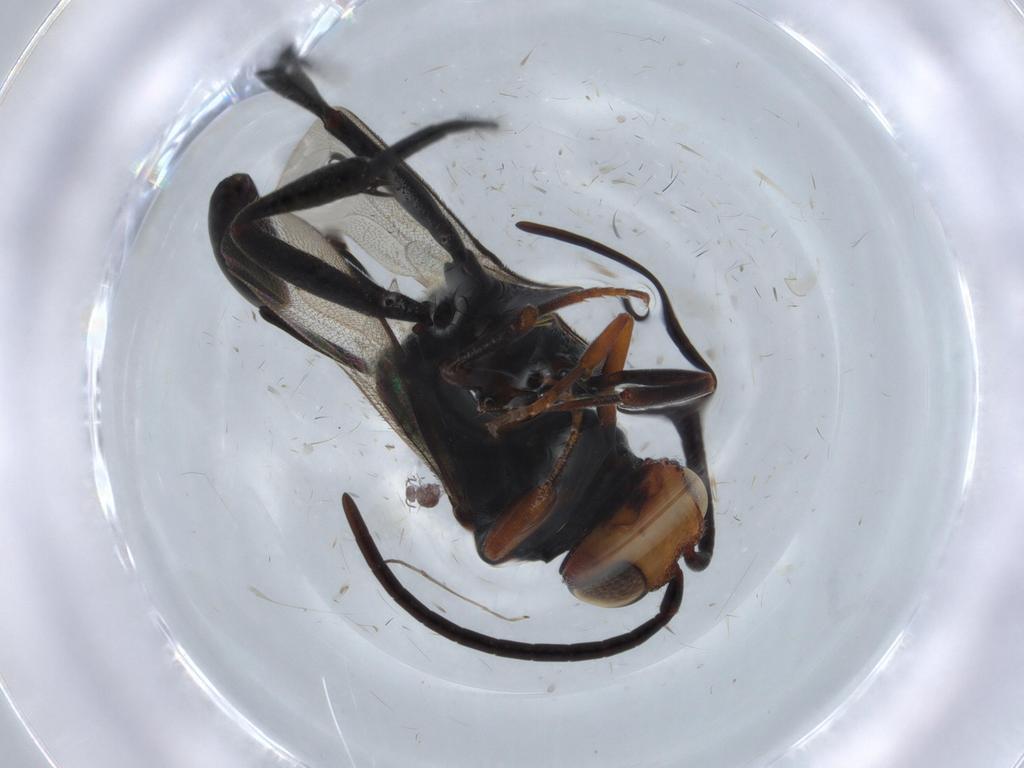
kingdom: Animalia
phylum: Arthropoda
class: Insecta
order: Hymenoptera
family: Evaniidae
